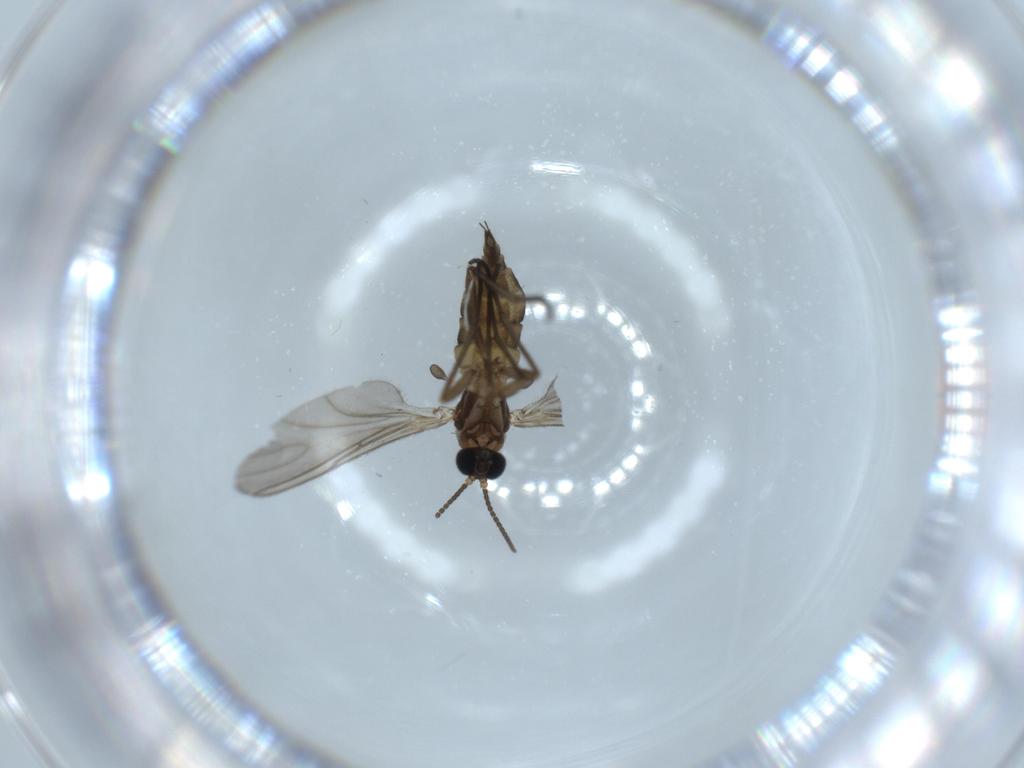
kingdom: Animalia
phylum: Arthropoda
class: Insecta
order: Diptera
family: Sciaridae
